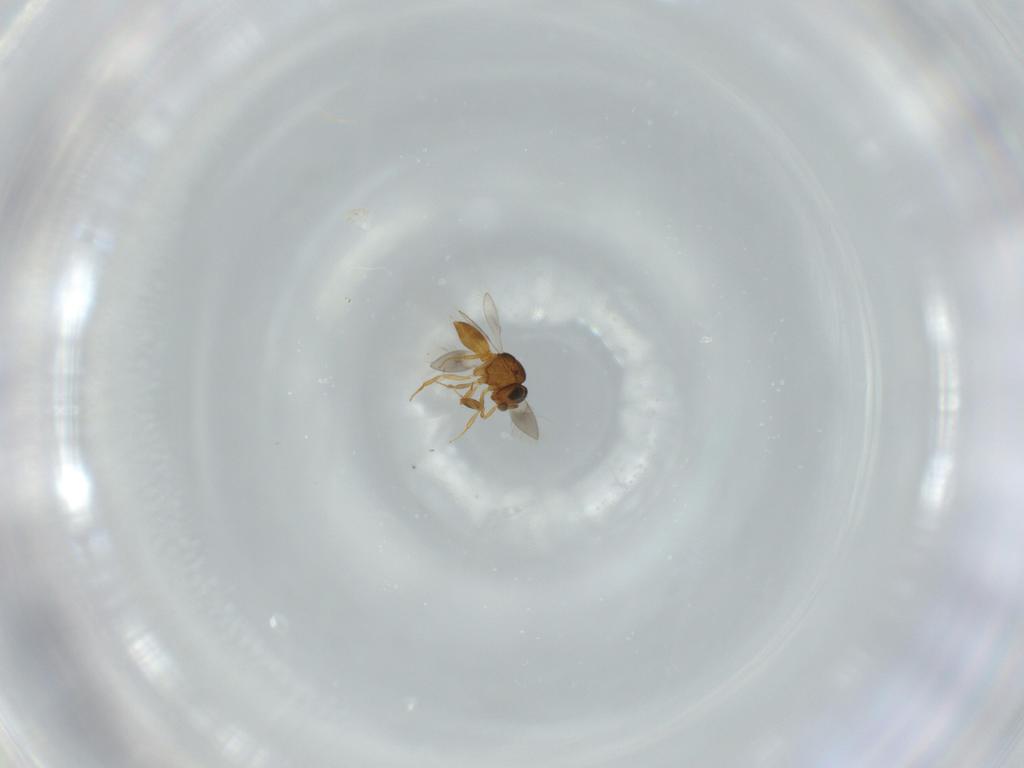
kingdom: Animalia
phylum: Arthropoda
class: Insecta
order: Hymenoptera
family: Scelionidae
